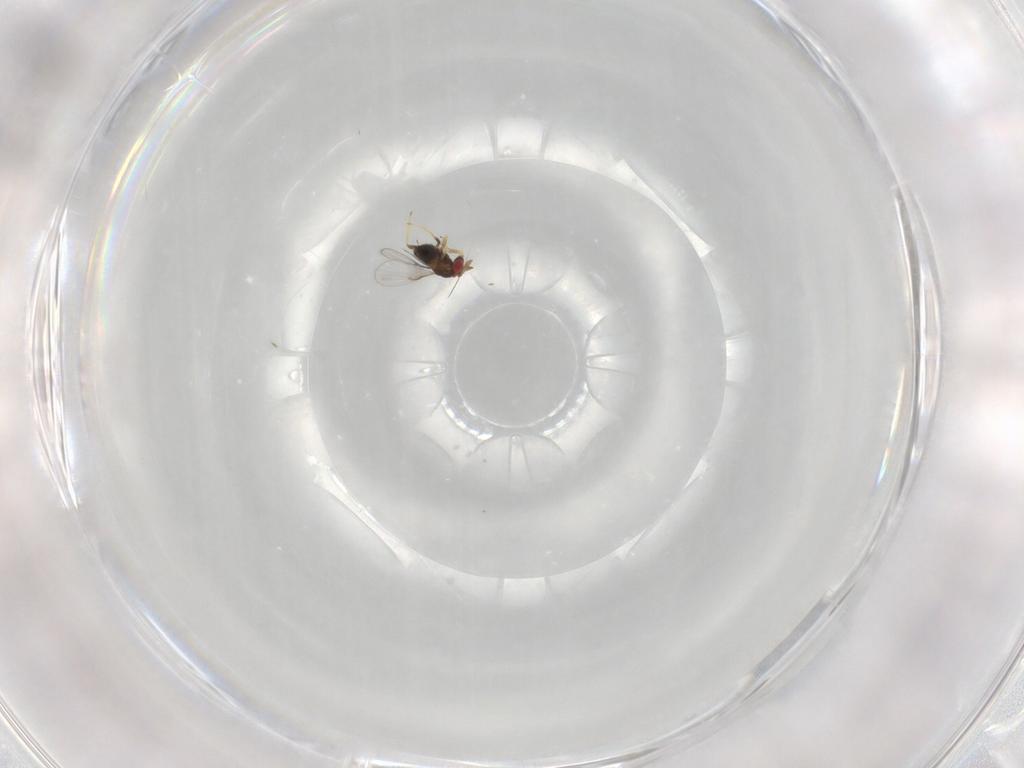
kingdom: Animalia
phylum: Arthropoda
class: Insecta
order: Hymenoptera
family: Trichogrammatidae
